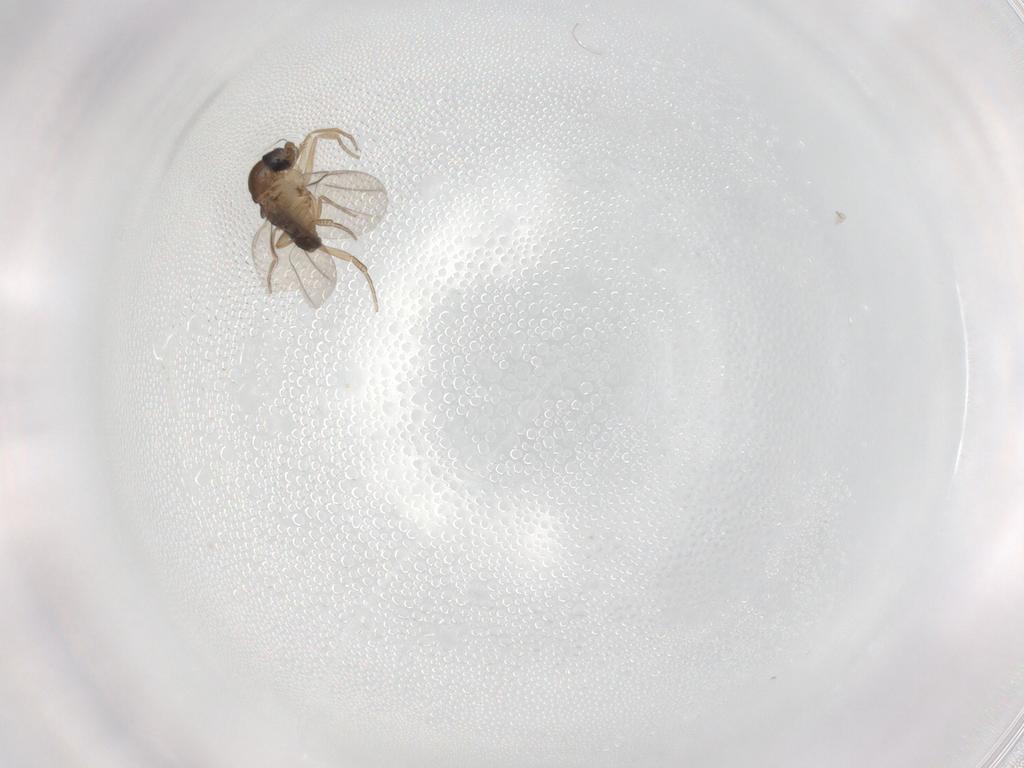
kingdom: Animalia
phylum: Arthropoda
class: Insecta
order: Diptera
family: Phoridae
